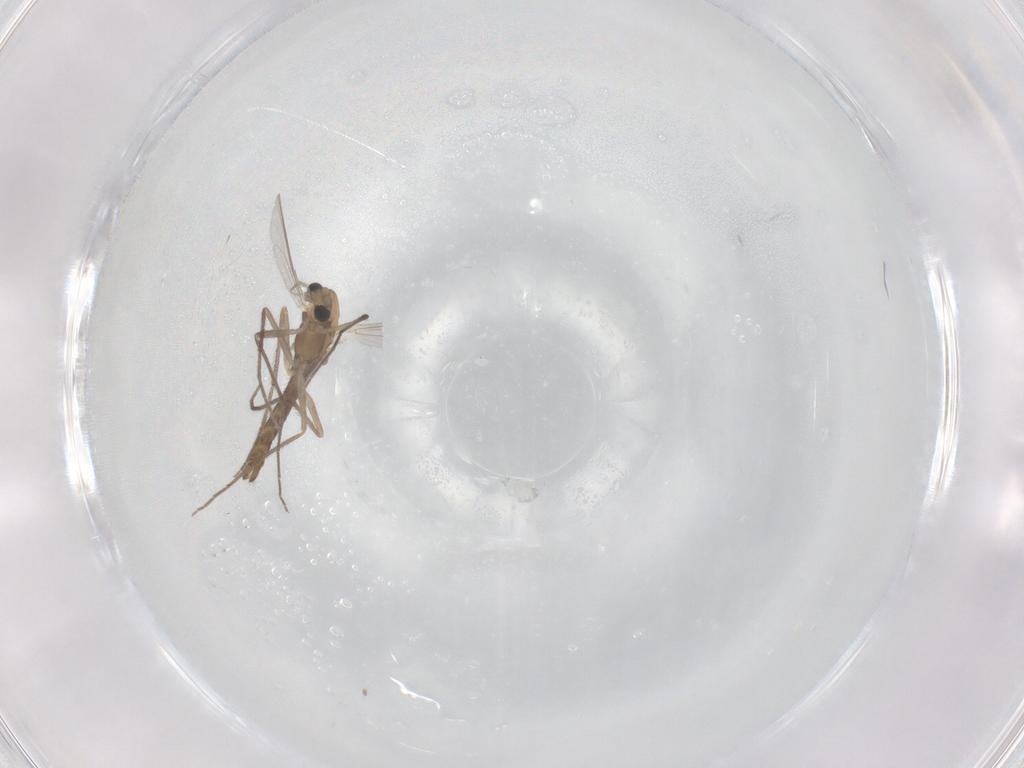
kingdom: Animalia
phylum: Arthropoda
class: Insecta
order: Diptera
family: Chironomidae
